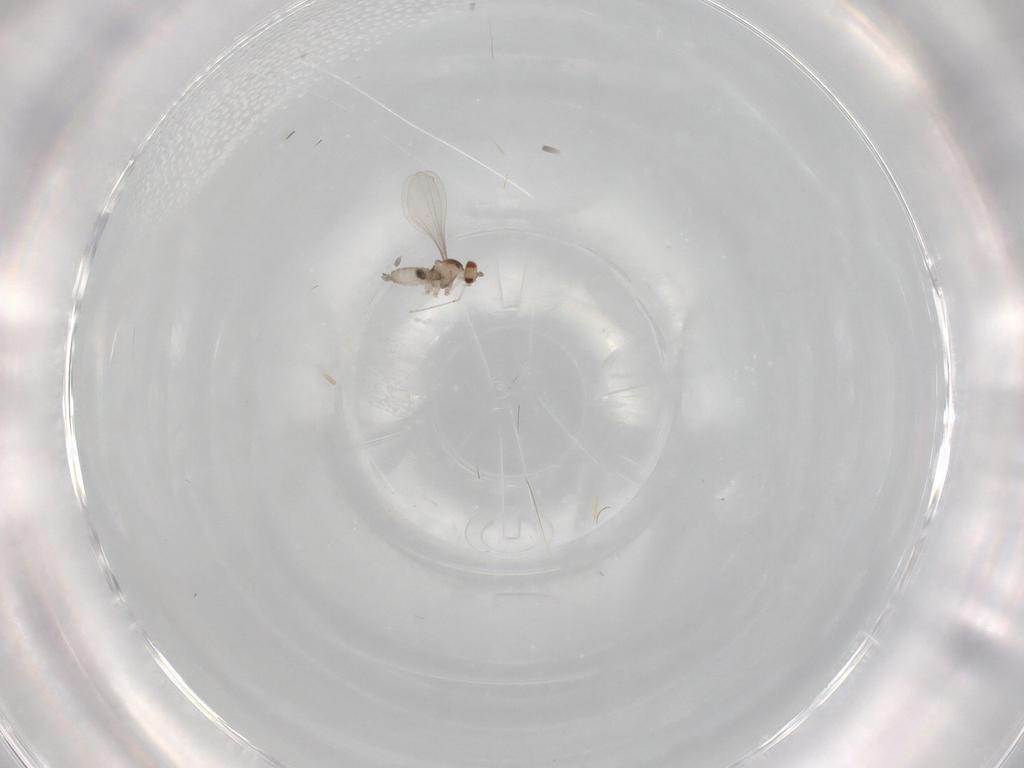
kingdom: Animalia
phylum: Arthropoda
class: Insecta
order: Diptera
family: Cecidomyiidae
